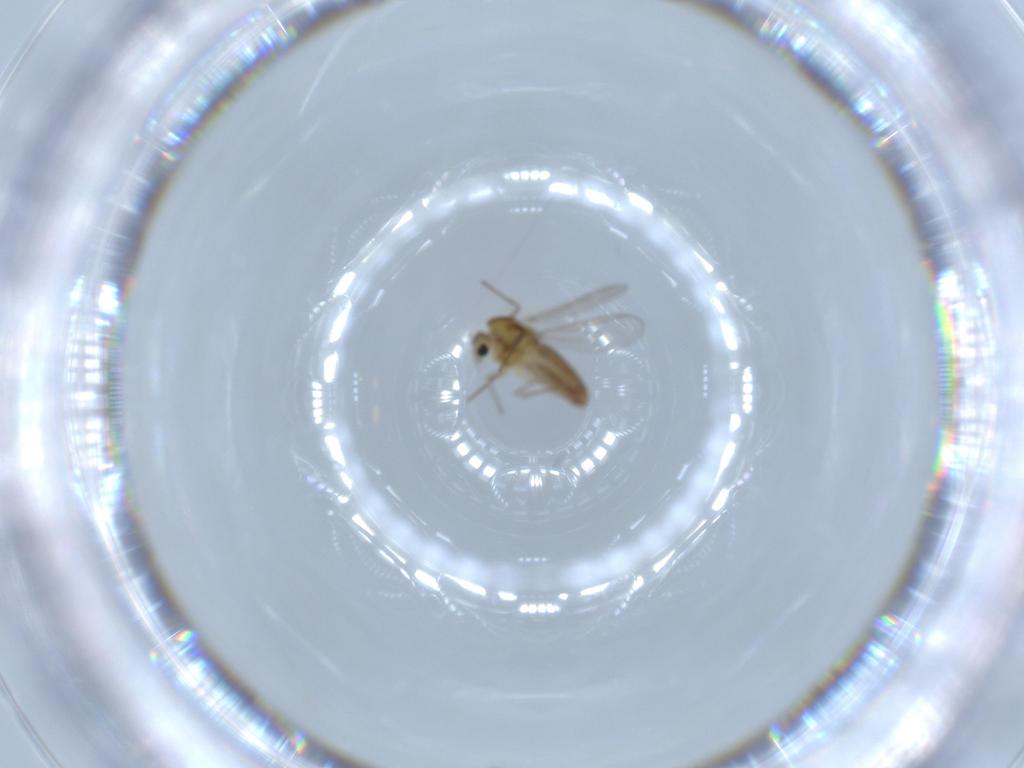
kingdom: Animalia
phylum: Arthropoda
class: Insecta
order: Diptera
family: Chironomidae
